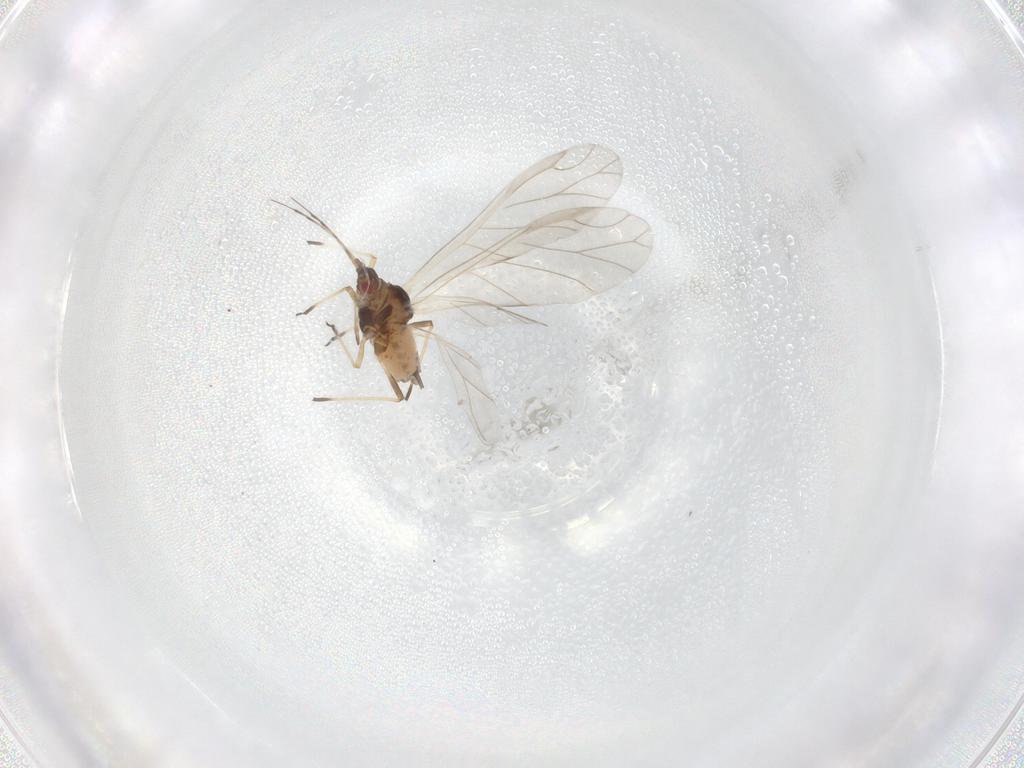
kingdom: Animalia
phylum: Arthropoda
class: Insecta
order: Hemiptera
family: Aphididae
